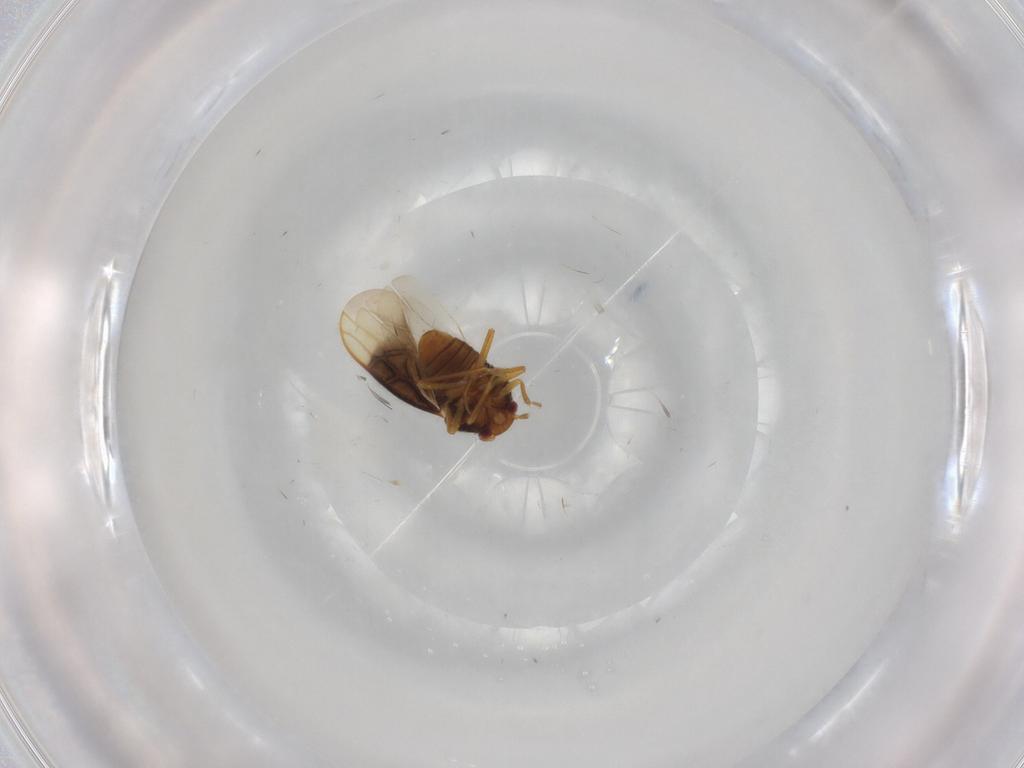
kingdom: Animalia
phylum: Arthropoda
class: Insecta
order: Hemiptera
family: Schizopteridae
